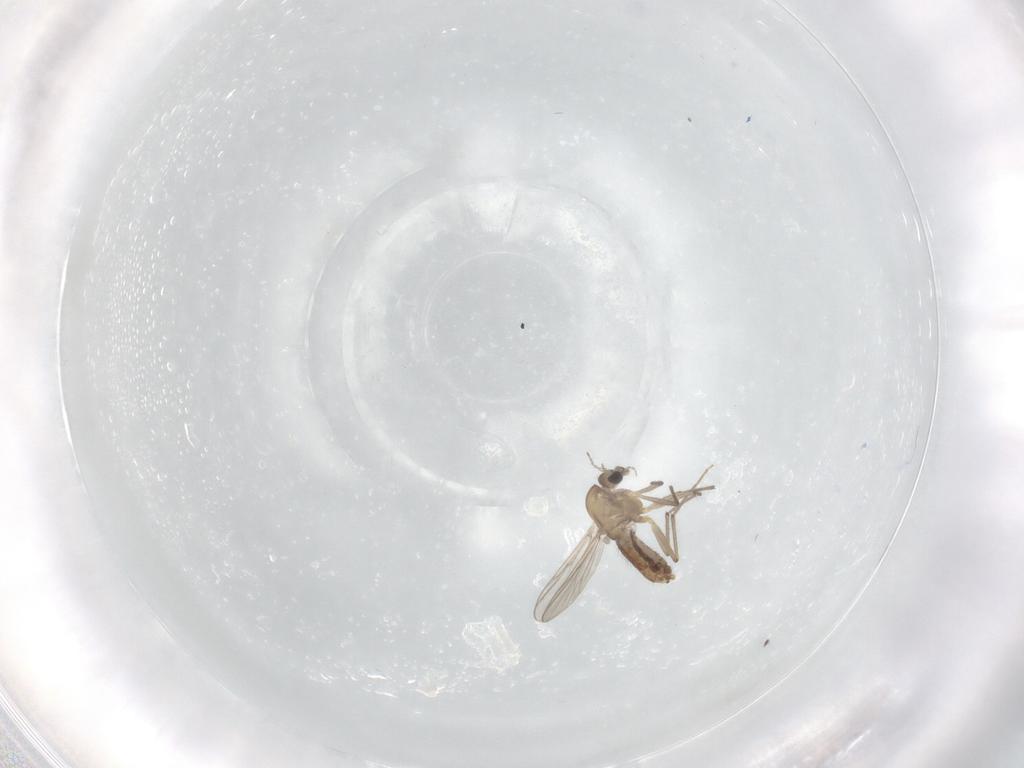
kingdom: Animalia
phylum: Arthropoda
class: Insecta
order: Diptera
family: Chironomidae
